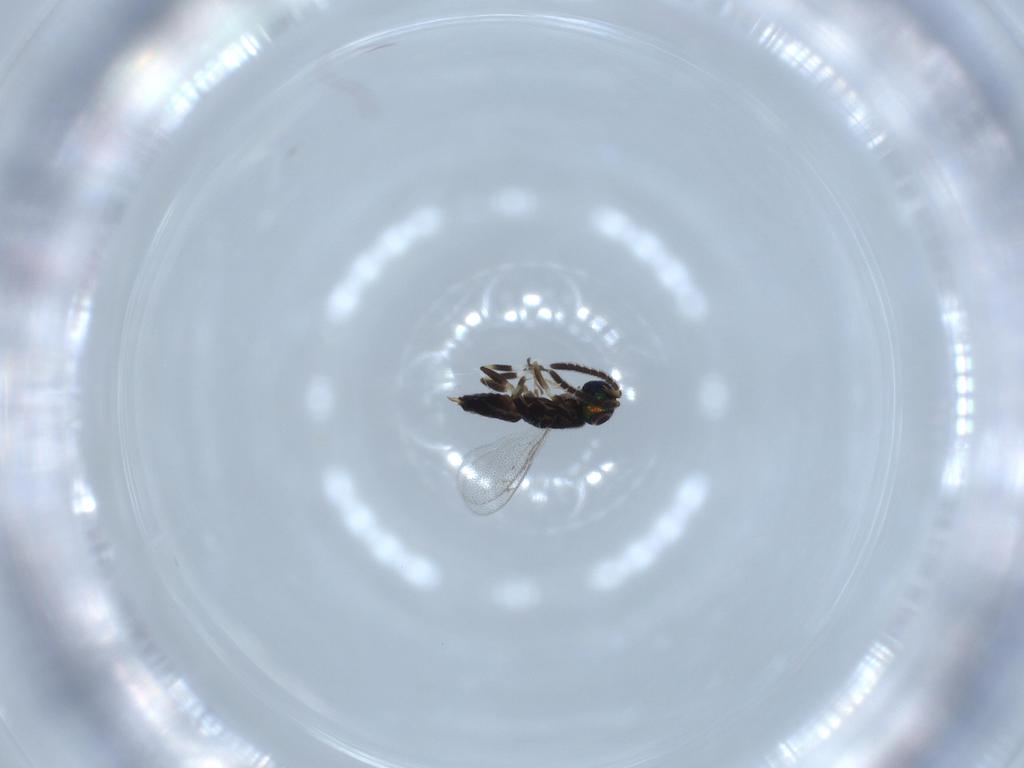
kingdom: Animalia
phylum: Arthropoda
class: Insecta
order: Hymenoptera
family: Eupelmidae
